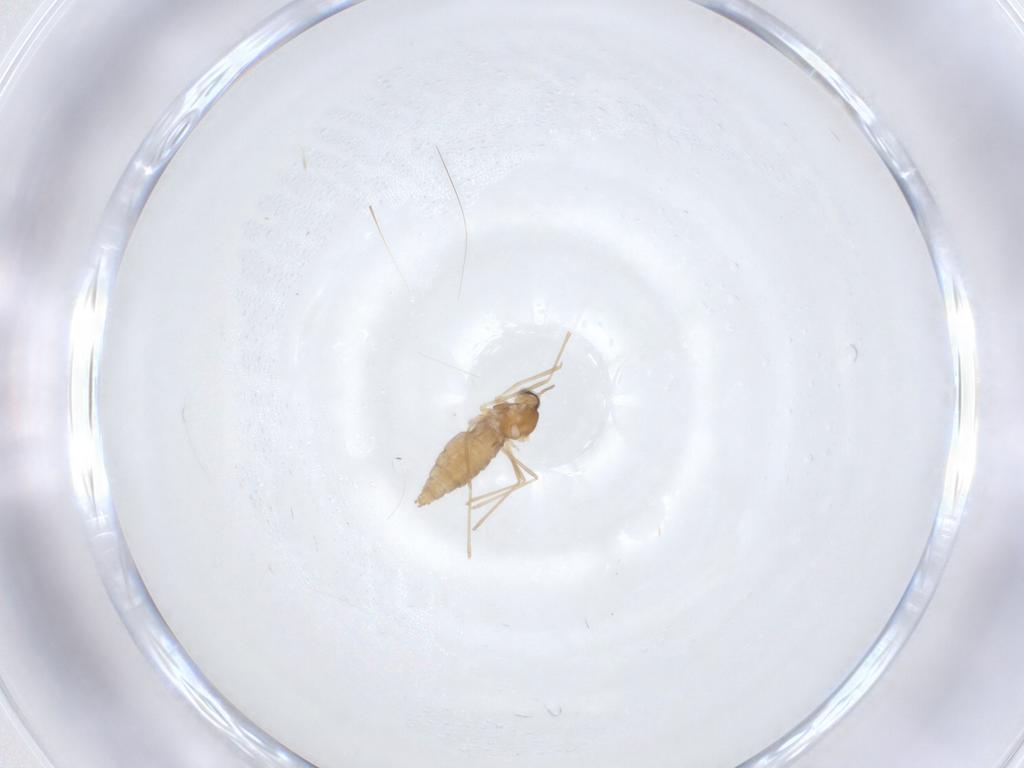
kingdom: Animalia
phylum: Arthropoda
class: Insecta
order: Diptera
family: Cecidomyiidae
